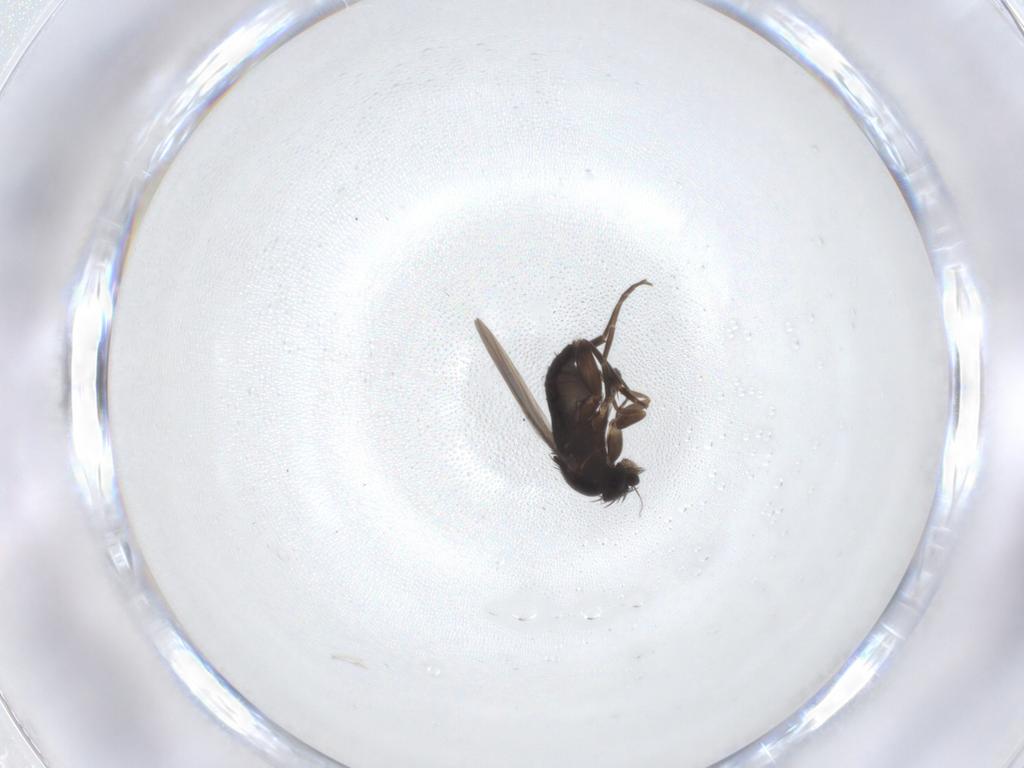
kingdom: Animalia
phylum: Arthropoda
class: Insecta
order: Diptera
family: Phoridae
